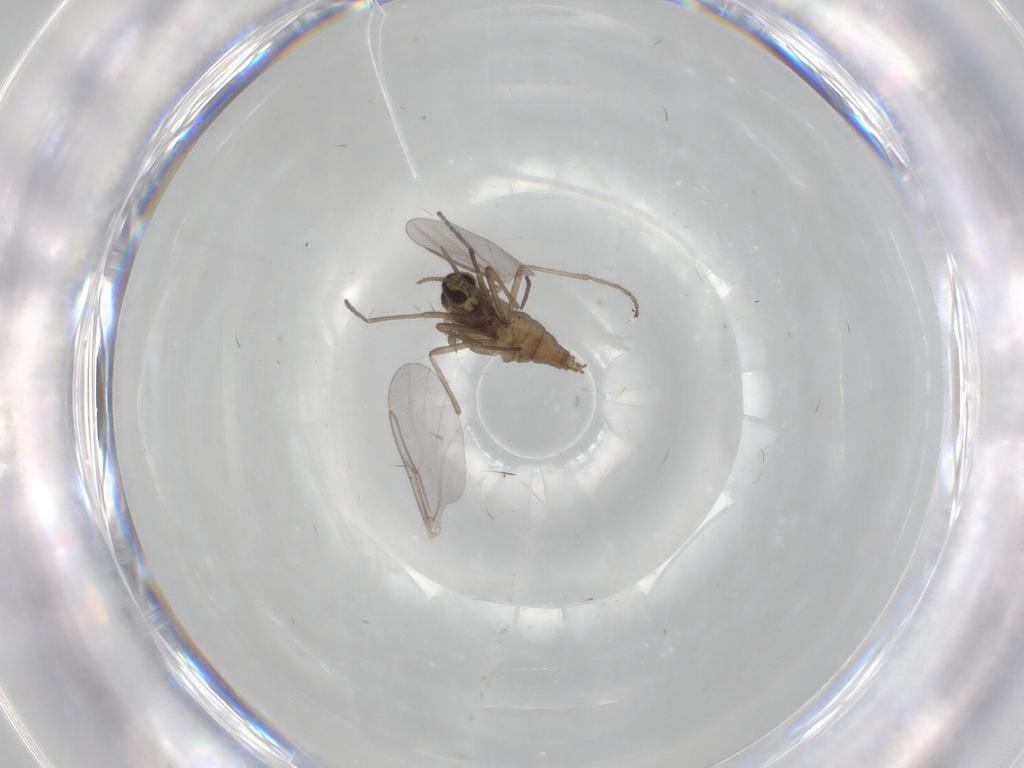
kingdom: Animalia
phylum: Arthropoda
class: Insecta
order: Diptera
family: Cecidomyiidae
